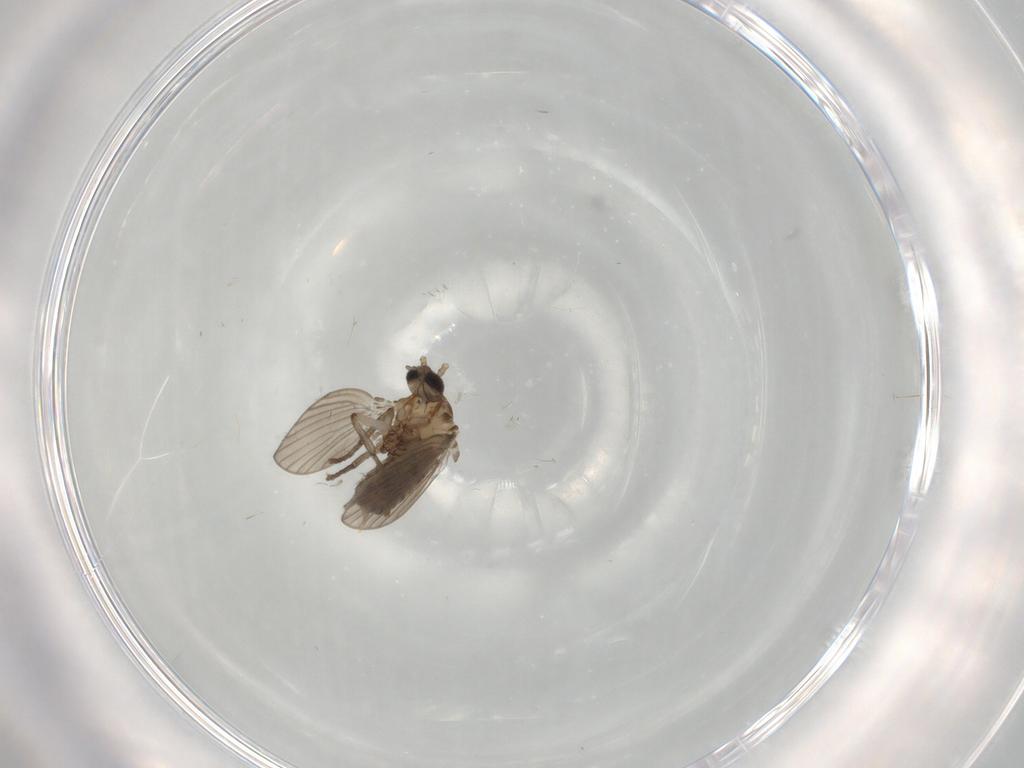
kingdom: Animalia
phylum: Arthropoda
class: Insecta
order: Diptera
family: Psychodidae
